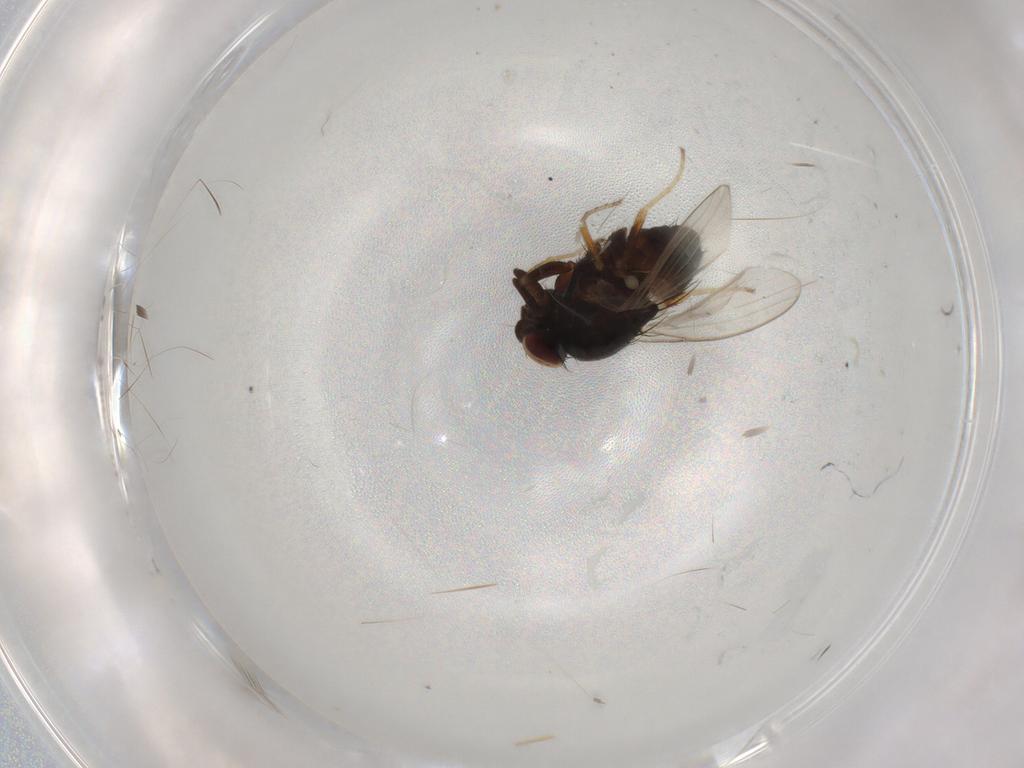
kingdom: Animalia
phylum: Arthropoda
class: Insecta
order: Diptera
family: Milichiidae
